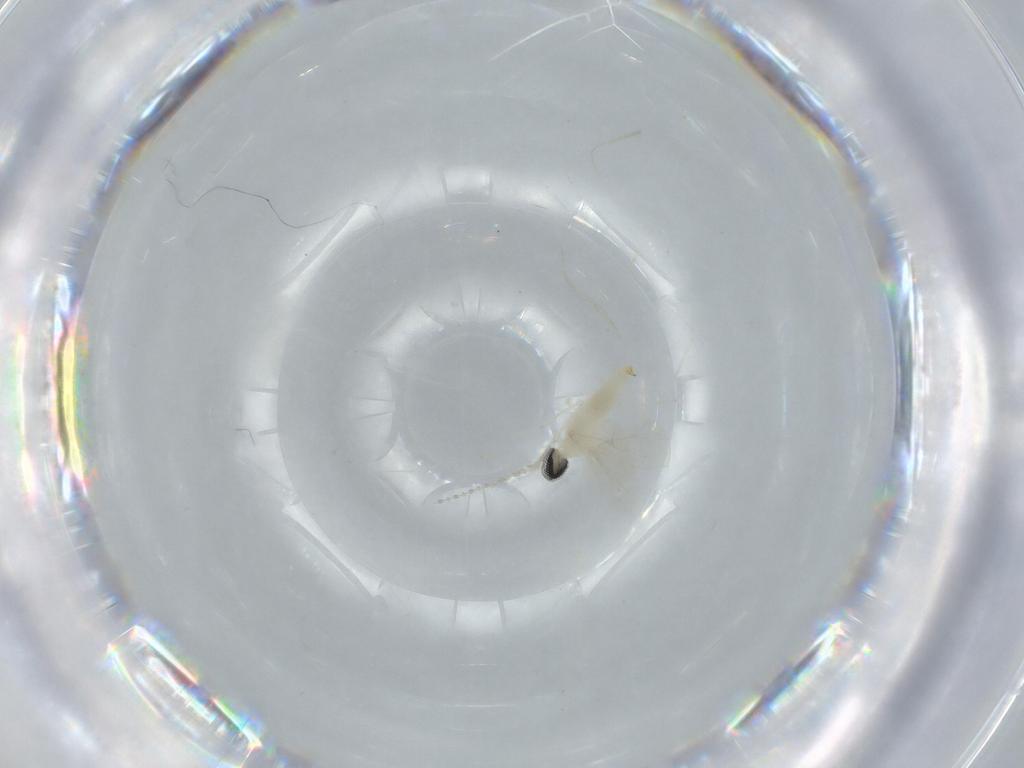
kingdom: Animalia
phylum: Arthropoda
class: Insecta
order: Diptera
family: Cecidomyiidae
